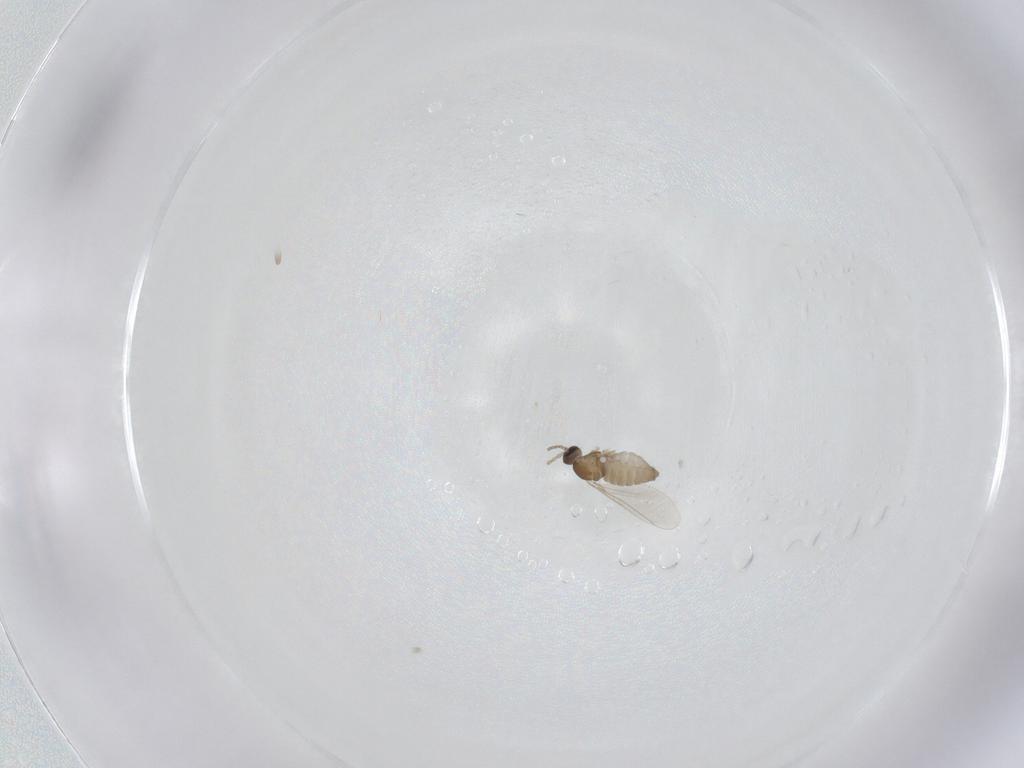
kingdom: Animalia
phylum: Arthropoda
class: Insecta
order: Diptera
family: Cecidomyiidae
